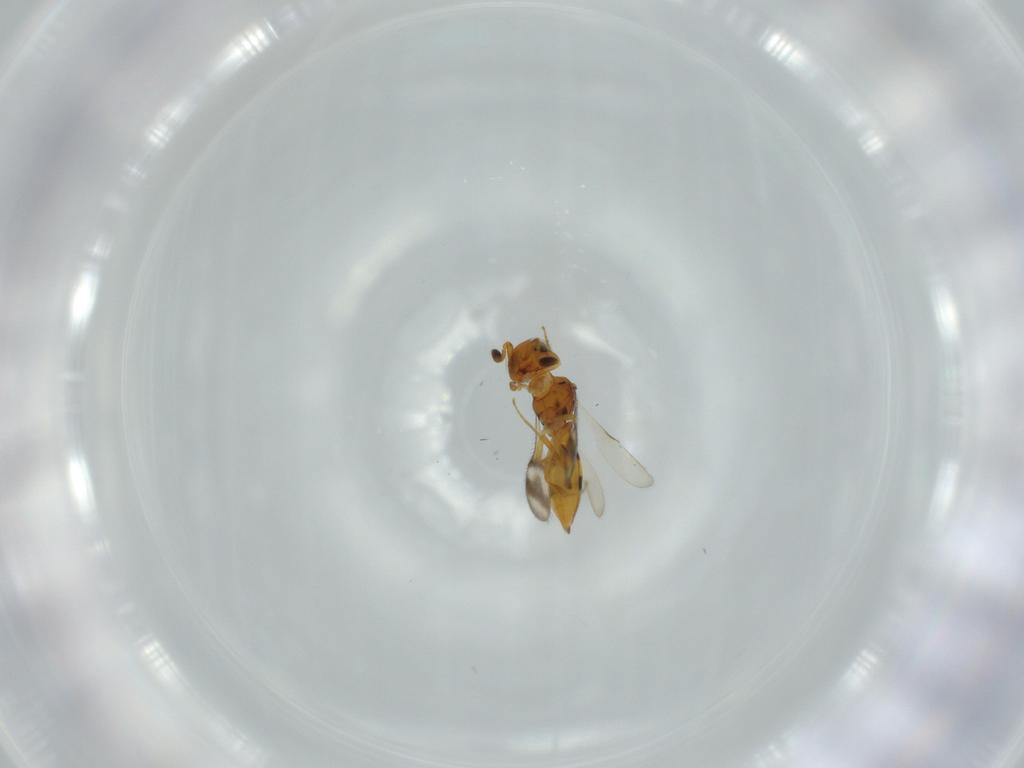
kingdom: Animalia
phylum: Arthropoda
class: Insecta
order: Hymenoptera
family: Scelionidae
